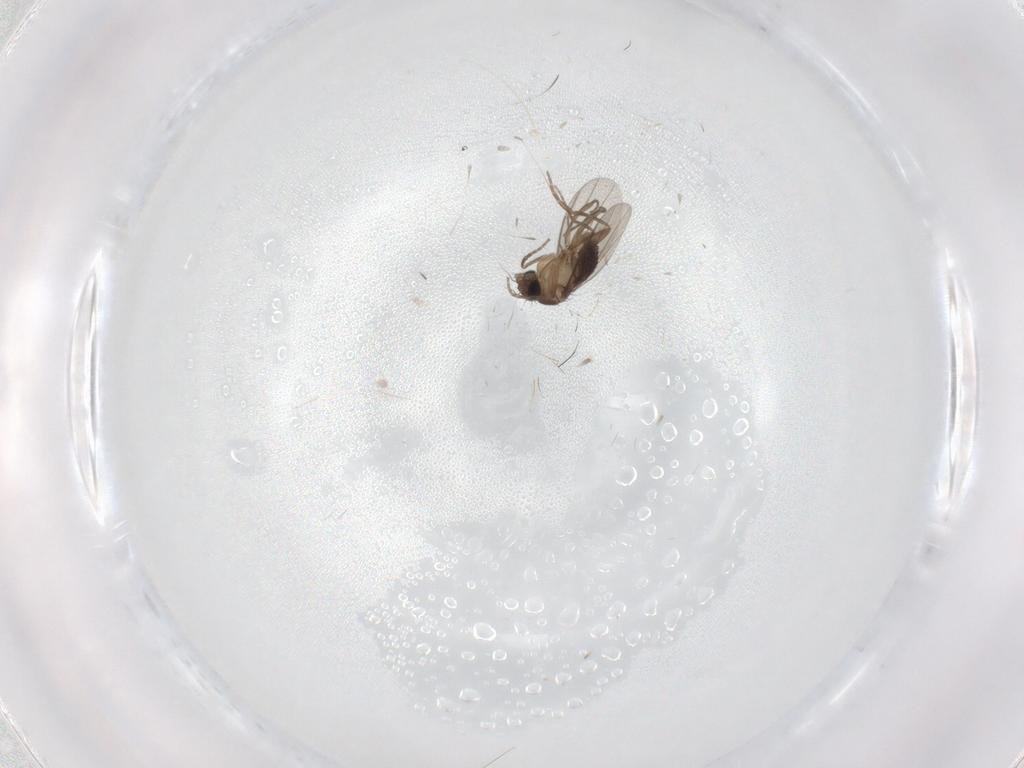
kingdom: Animalia
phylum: Arthropoda
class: Insecta
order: Diptera
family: Phoridae
